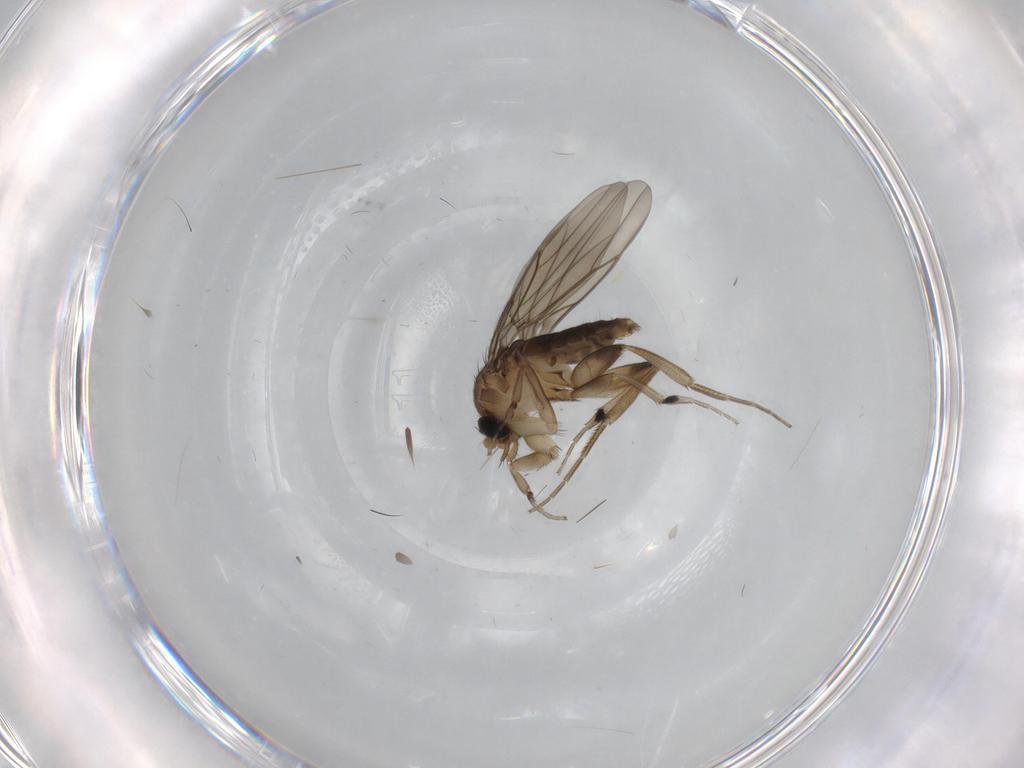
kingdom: Animalia
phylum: Arthropoda
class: Insecta
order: Diptera
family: Phoridae
